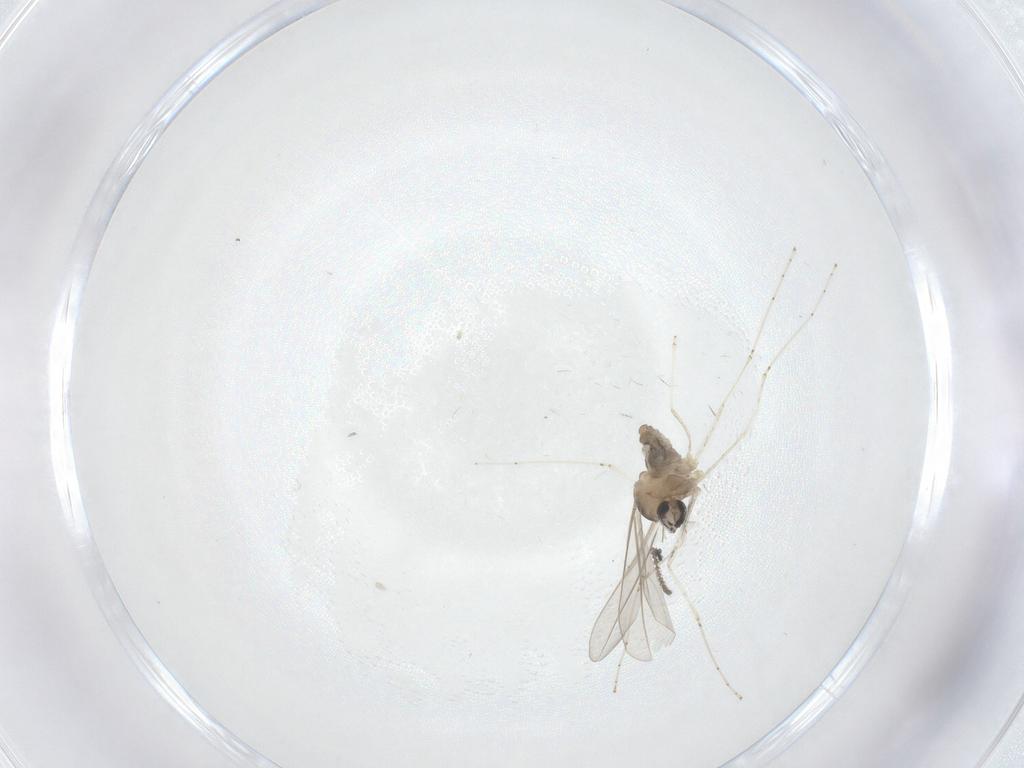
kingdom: Animalia
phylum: Arthropoda
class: Insecta
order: Diptera
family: Cecidomyiidae
